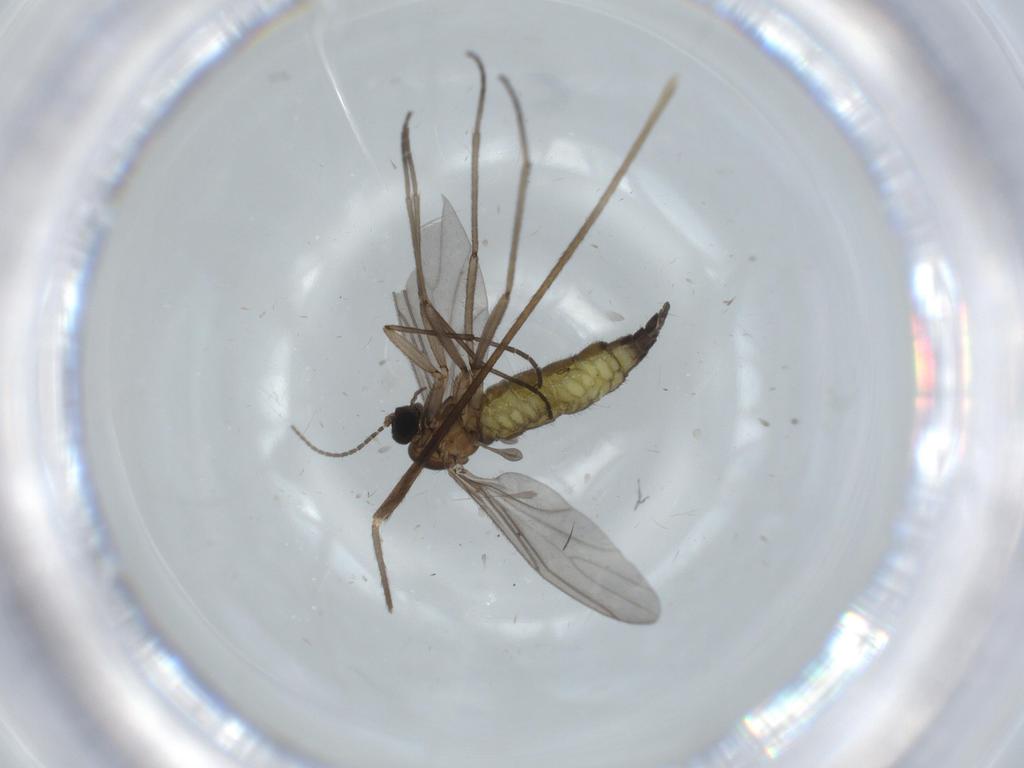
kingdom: Animalia
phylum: Arthropoda
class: Insecta
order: Diptera
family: Limoniidae
